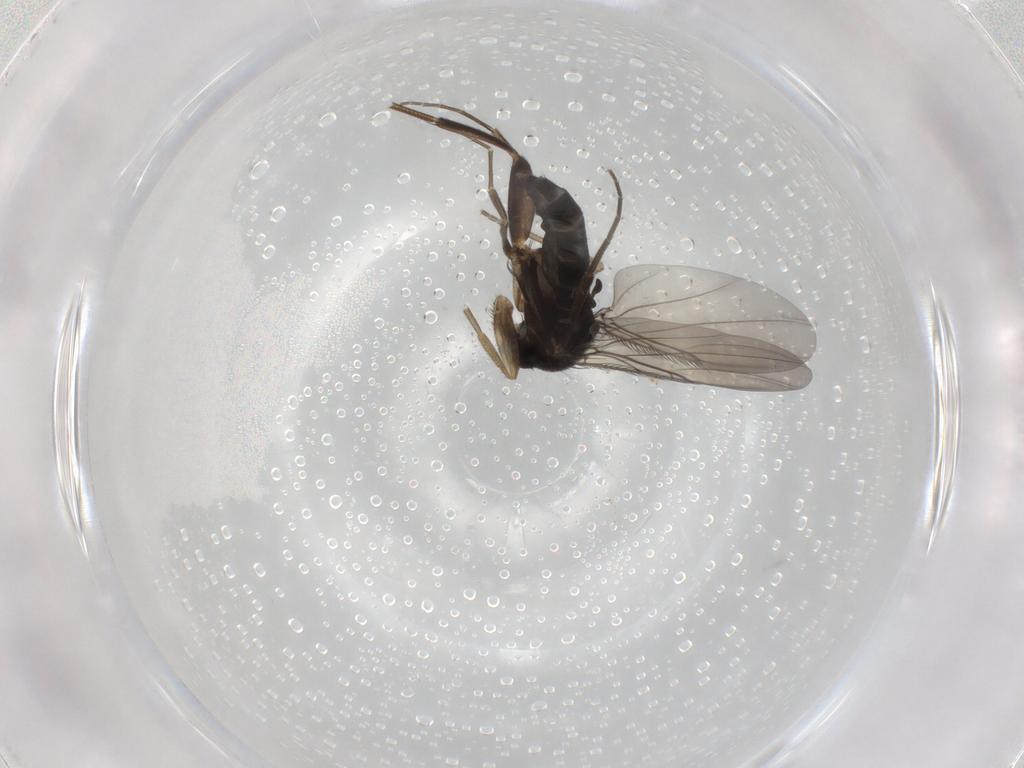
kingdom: Animalia
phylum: Arthropoda
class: Insecta
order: Diptera
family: Phoridae
